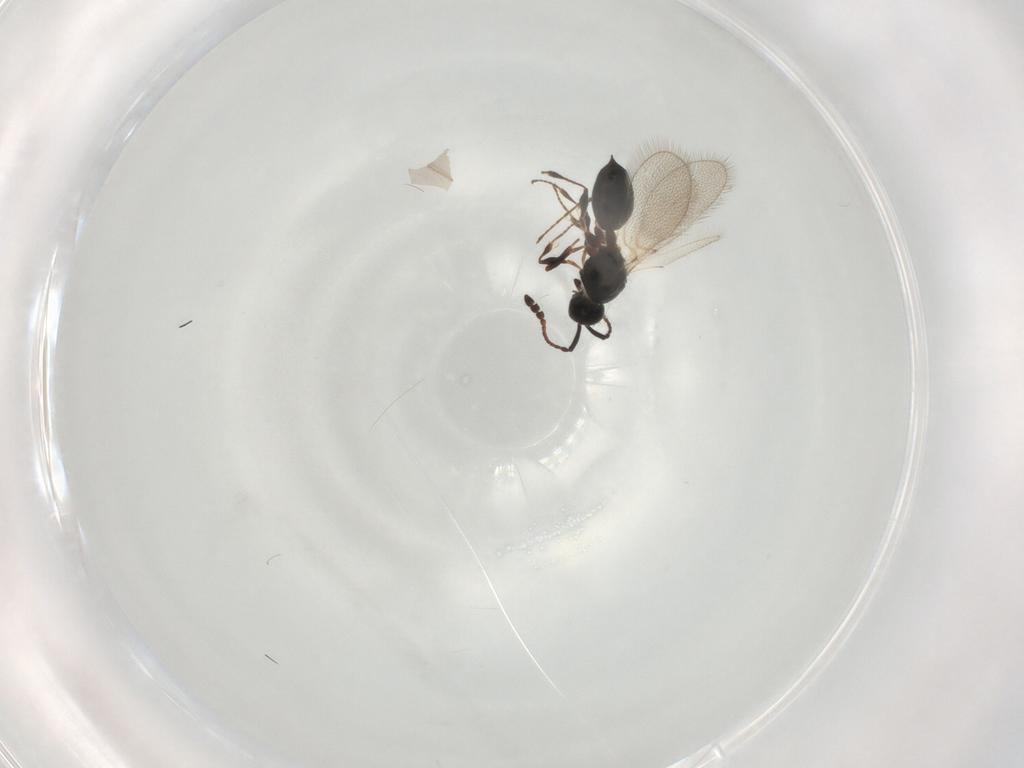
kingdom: Animalia
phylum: Arthropoda
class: Insecta
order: Hymenoptera
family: Diapriidae
